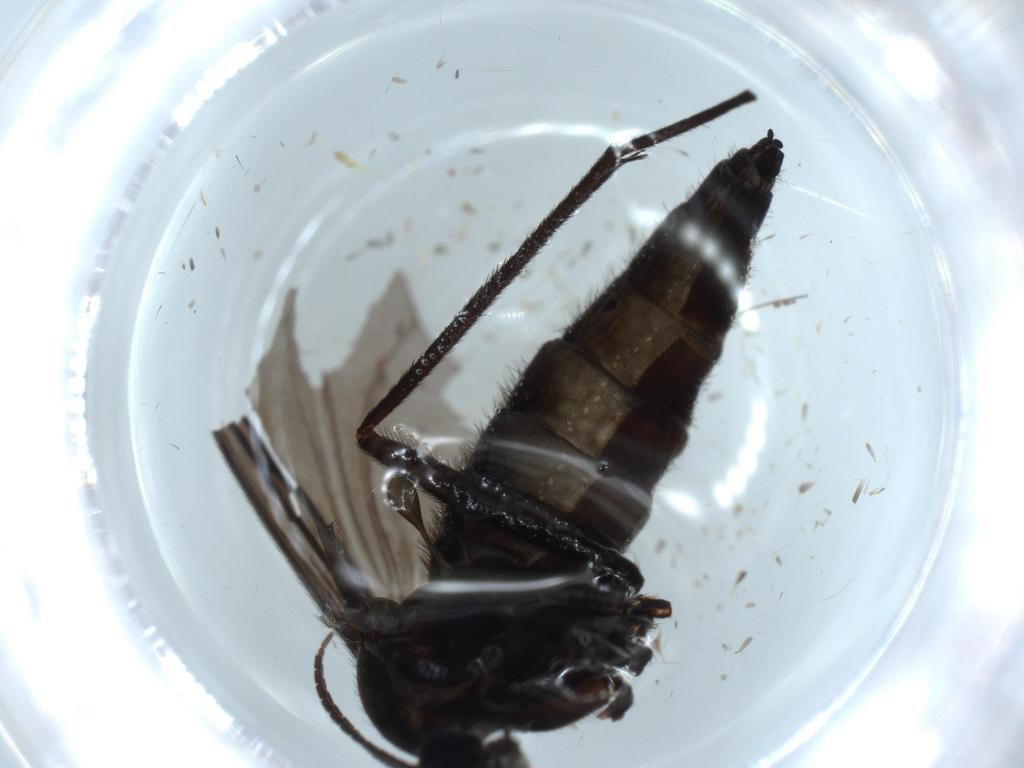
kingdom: Animalia
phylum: Arthropoda
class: Insecta
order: Diptera
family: Sciaridae
